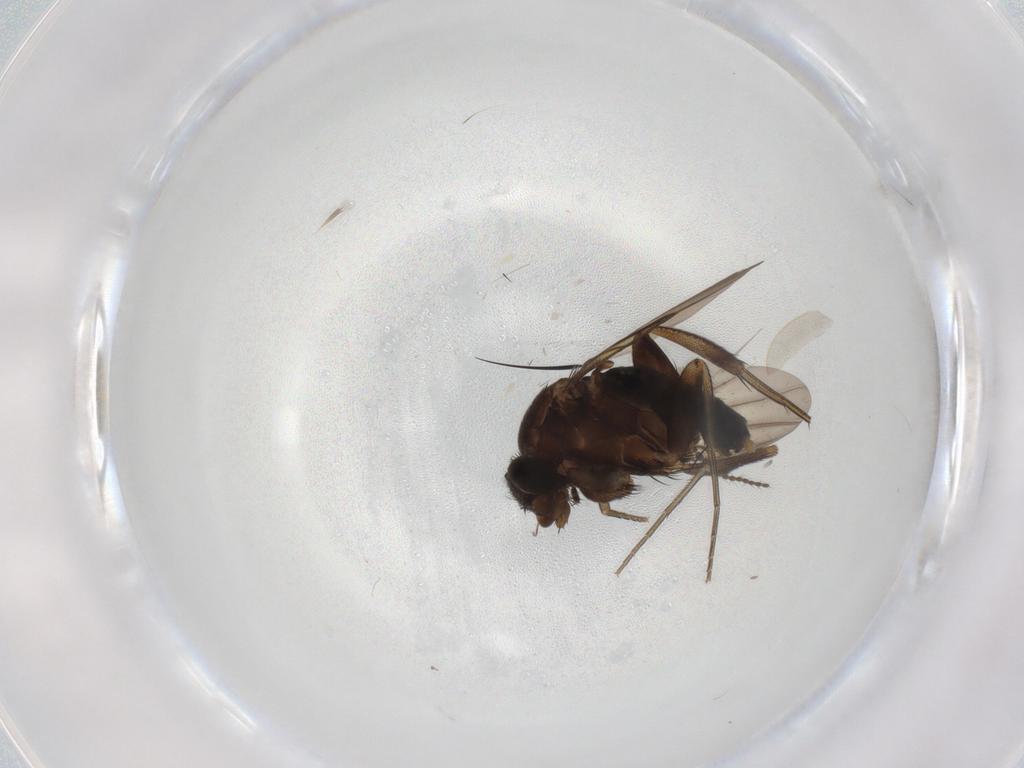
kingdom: Animalia
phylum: Arthropoda
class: Insecta
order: Diptera
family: Phoridae
